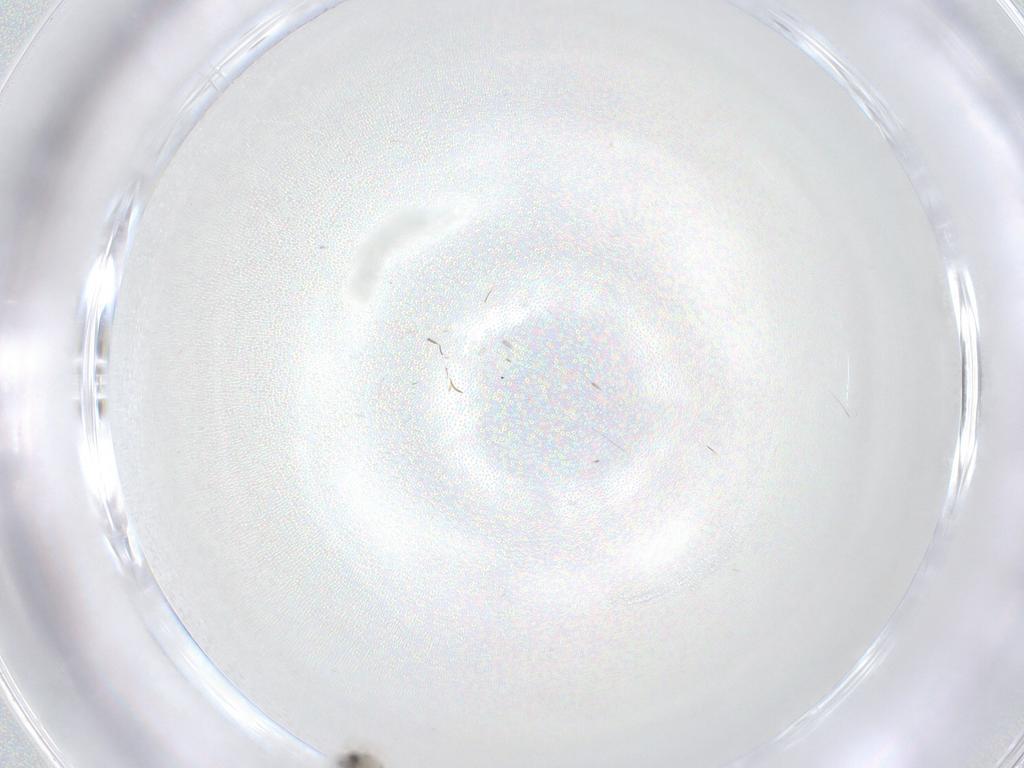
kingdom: Animalia
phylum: Arthropoda
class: Insecta
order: Diptera
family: Cecidomyiidae
